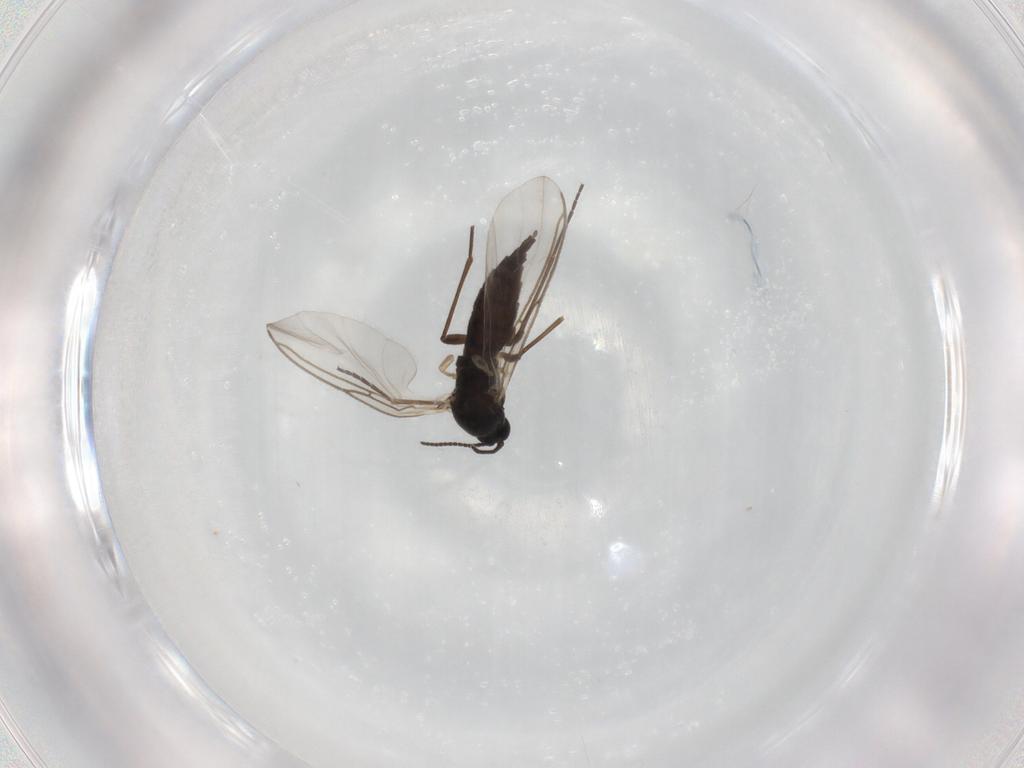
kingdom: Animalia
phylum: Arthropoda
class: Insecta
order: Diptera
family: Sciaridae
